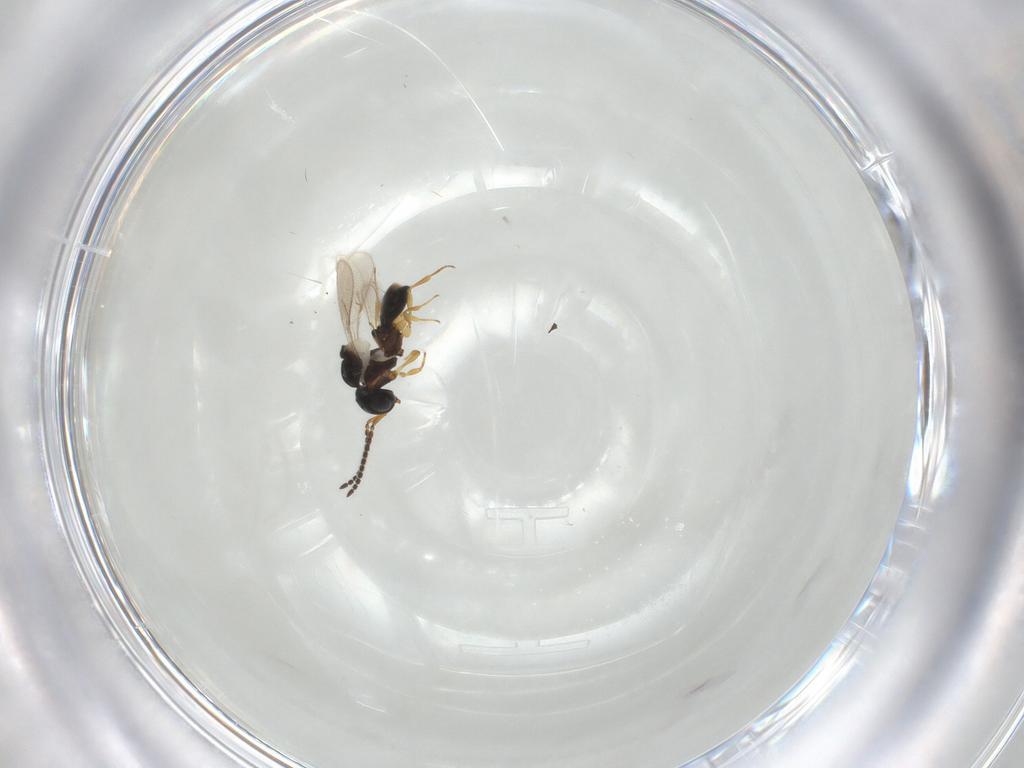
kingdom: Animalia
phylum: Arthropoda
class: Insecta
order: Hymenoptera
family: Scelionidae
